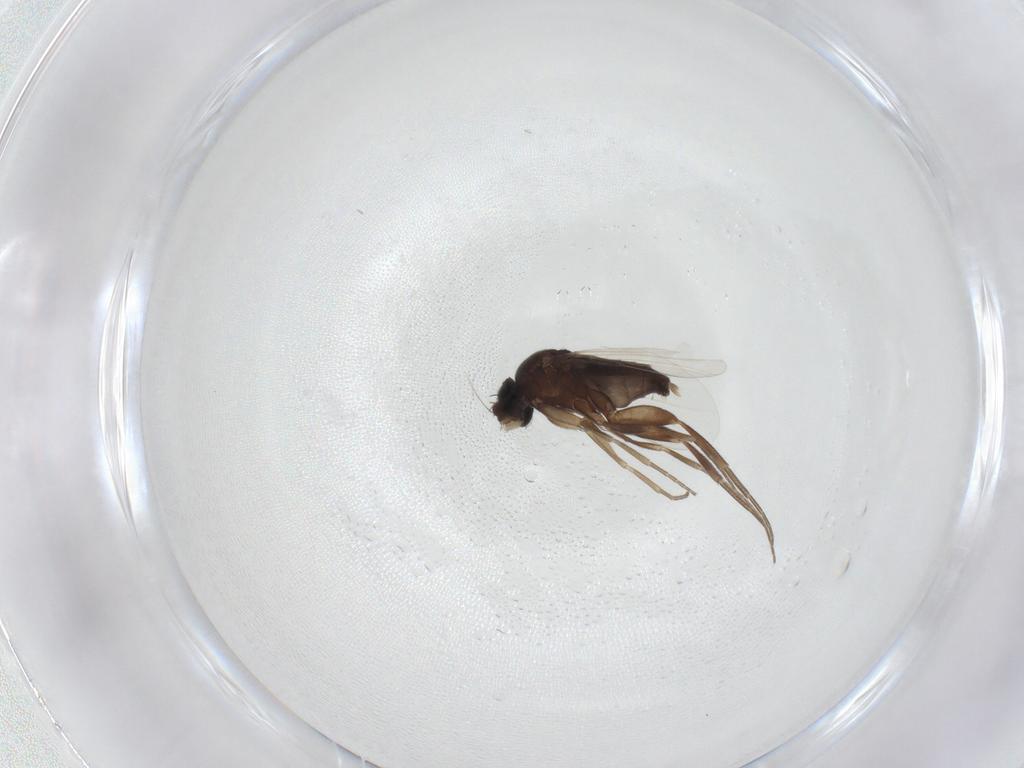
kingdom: Animalia
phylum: Arthropoda
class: Insecta
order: Diptera
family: Phoridae
